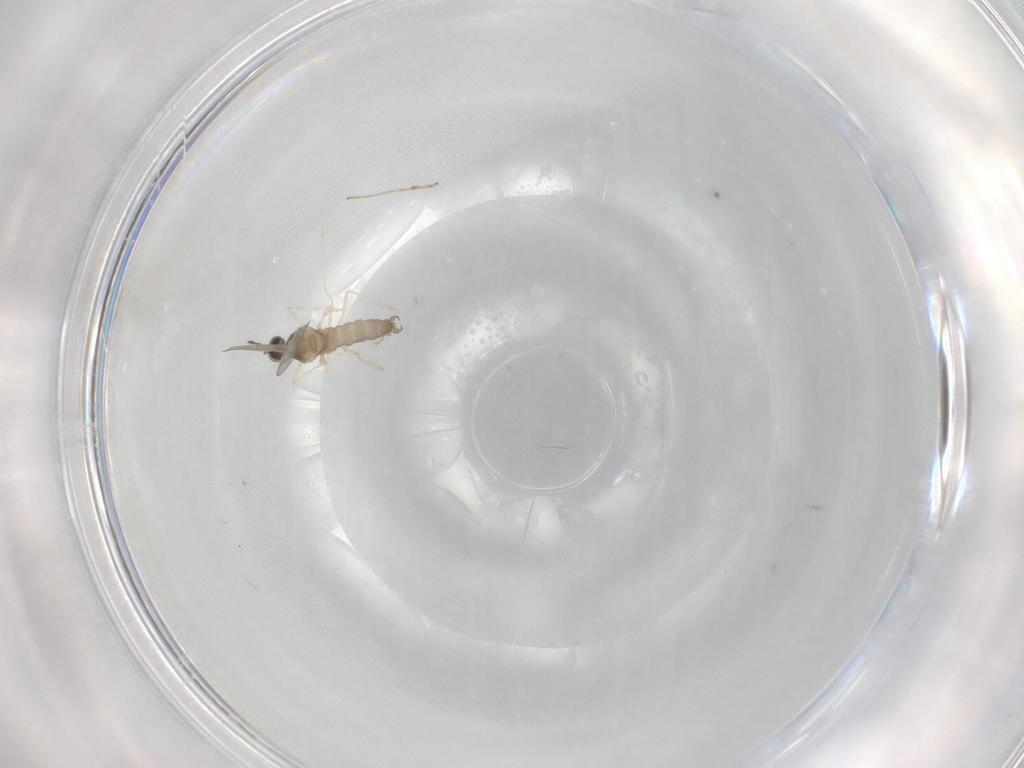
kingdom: Animalia
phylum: Arthropoda
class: Insecta
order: Diptera
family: Sciaridae
